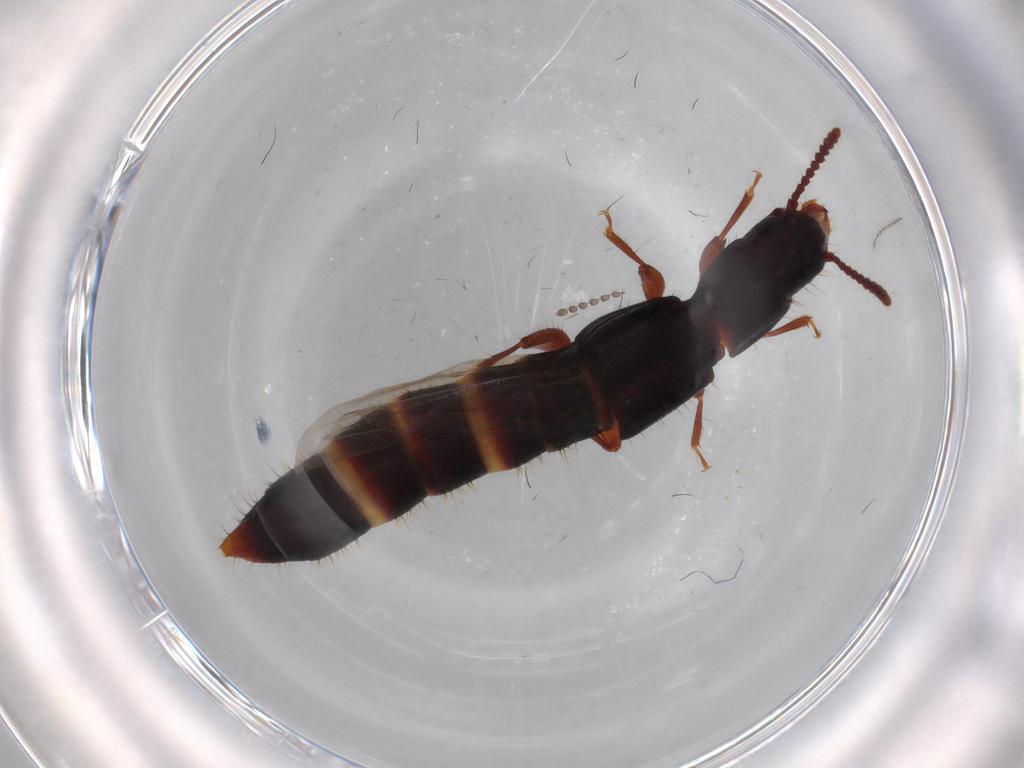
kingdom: Animalia
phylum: Arthropoda
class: Insecta
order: Coleoptera
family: Staphylinidae
